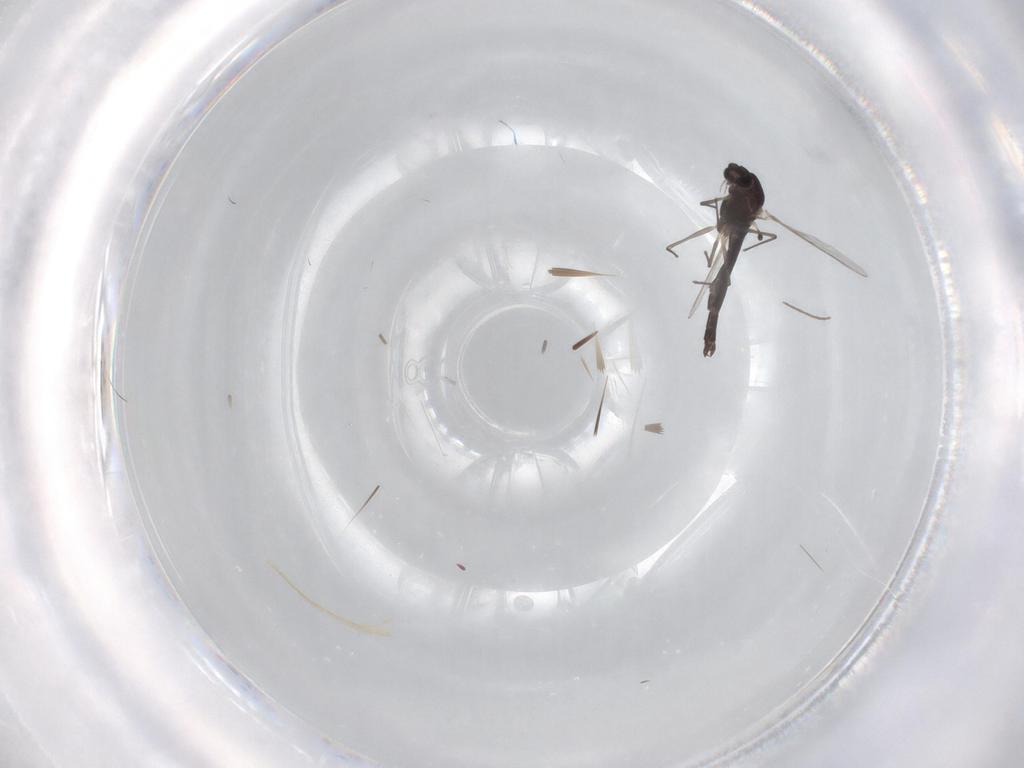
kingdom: Animalia
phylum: Arthropoda
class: Insecta
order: Diptera
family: Chironomidae
